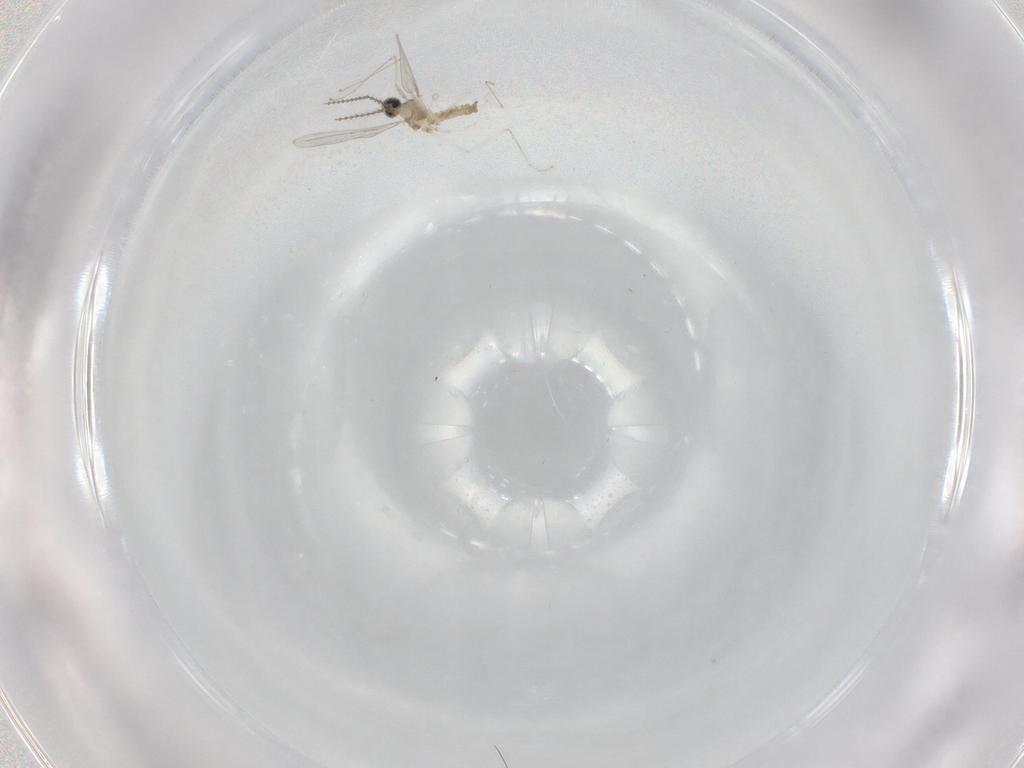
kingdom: Animalia
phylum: Arthropoda
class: Insecta
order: Diptera
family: Cecidomyiidae
